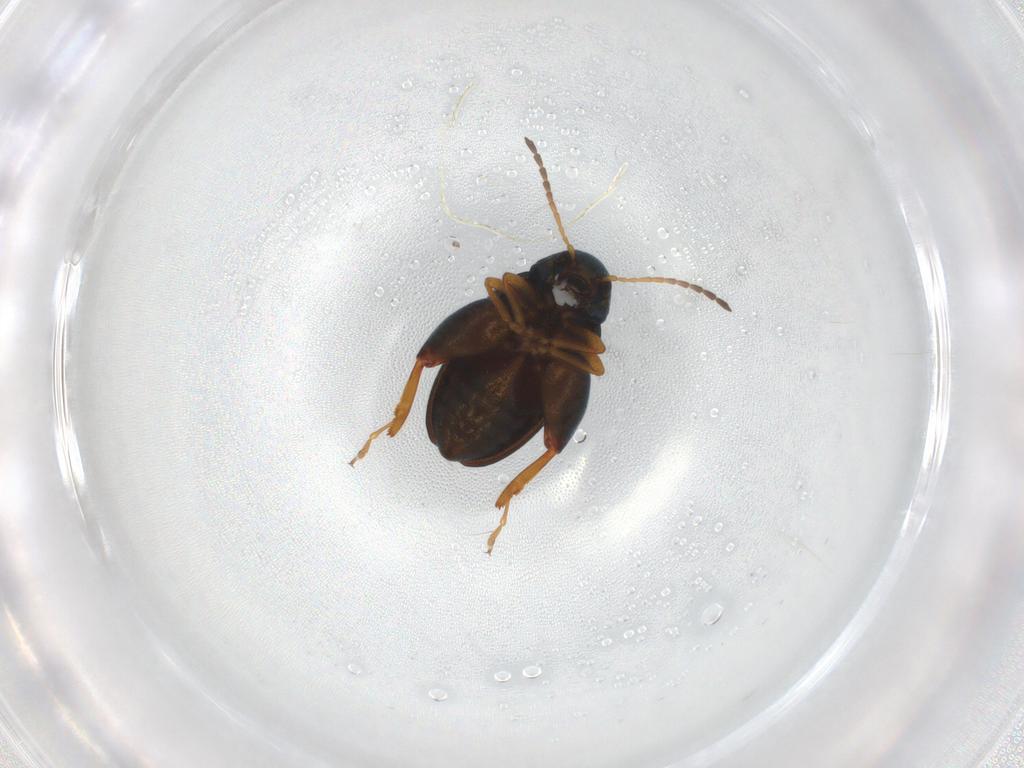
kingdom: Animalia
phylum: Arthropoda
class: Insecta
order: Coleoptera
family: Chrysomelidae
